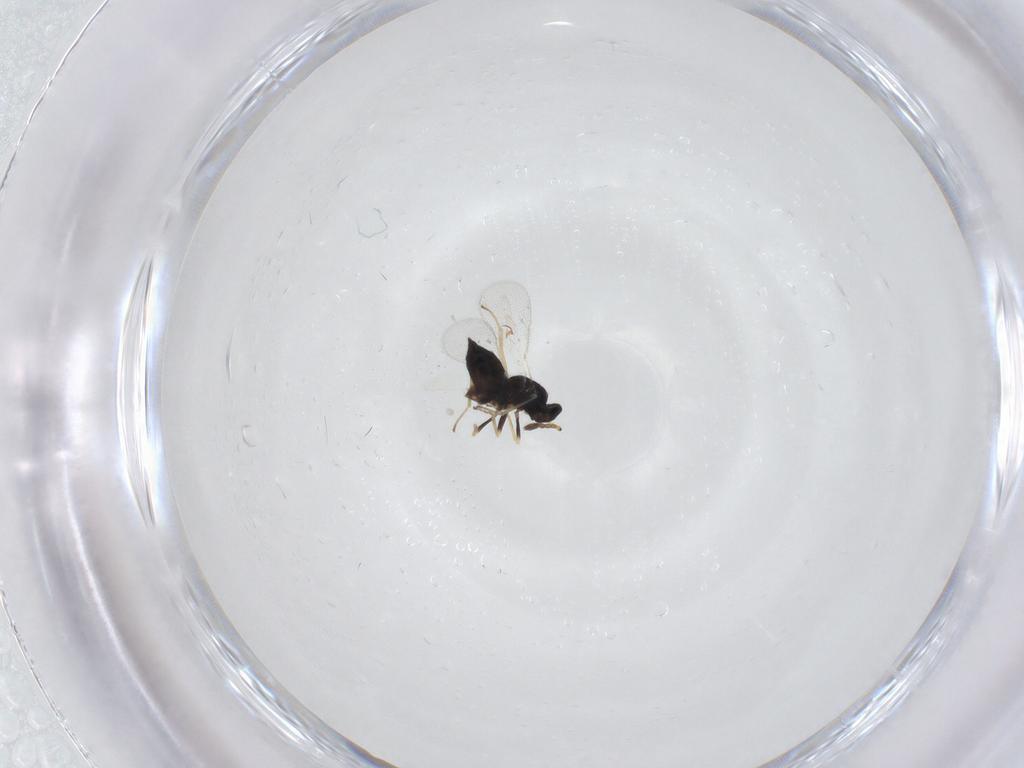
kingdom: Animalia
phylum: Arthropoda
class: Insecta
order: Hymenoptera
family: Eulophidae
